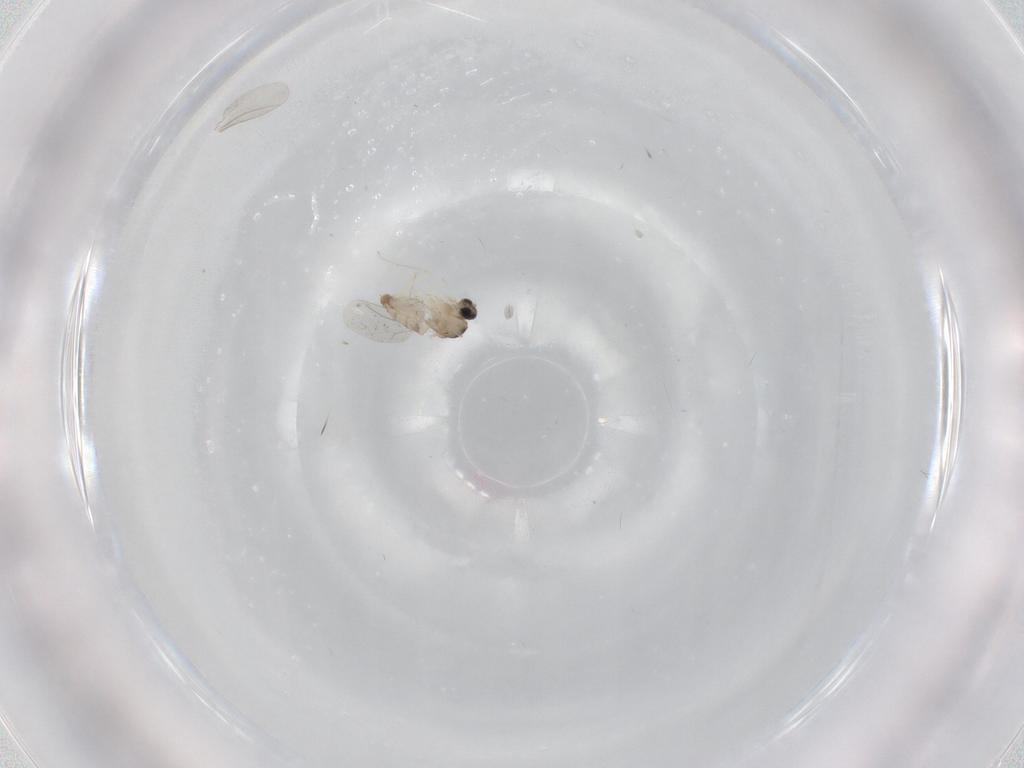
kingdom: Animalia
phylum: Arthropoda
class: Insecta
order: Diptera
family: Cecidomyiidae
